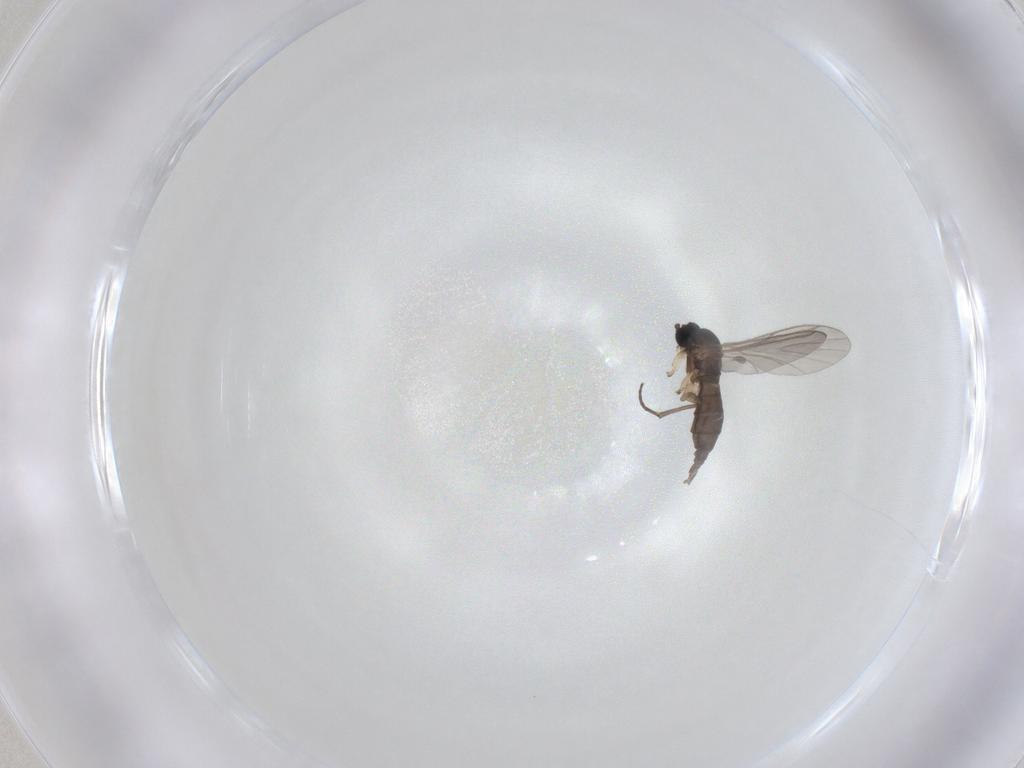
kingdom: Animalia
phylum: Arthropoda
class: Insecta
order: Diptera
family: Sciaridae
